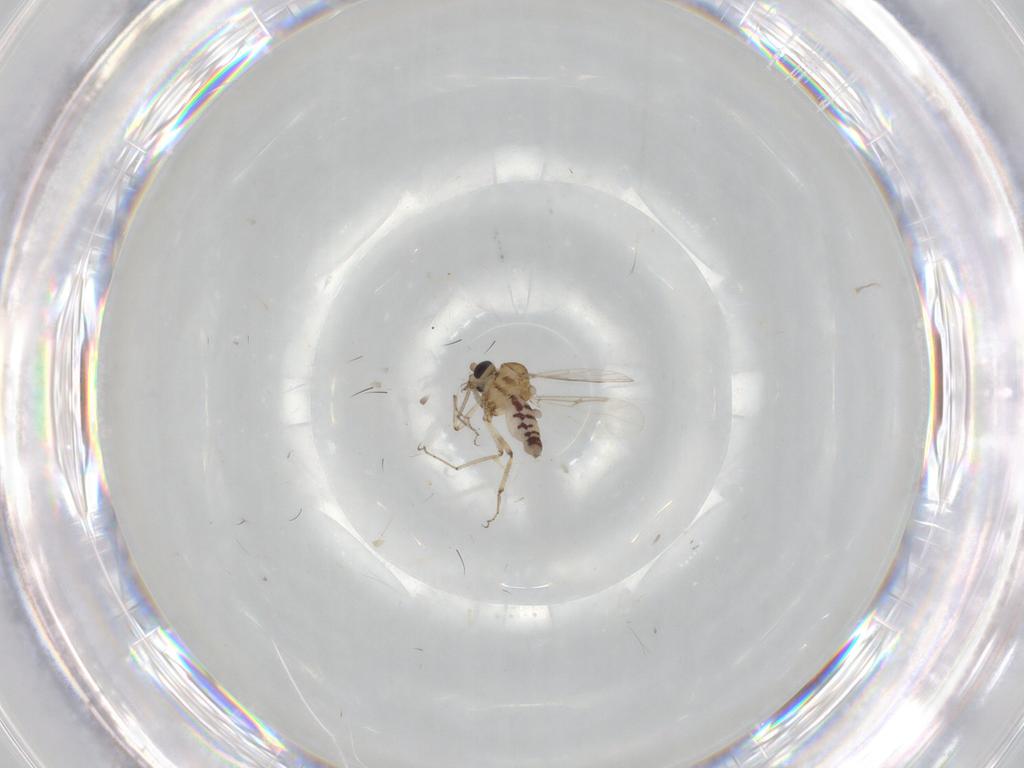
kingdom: Animalia
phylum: Arthropoda
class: Insecta
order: Diptera
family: Ceratopogonidae
